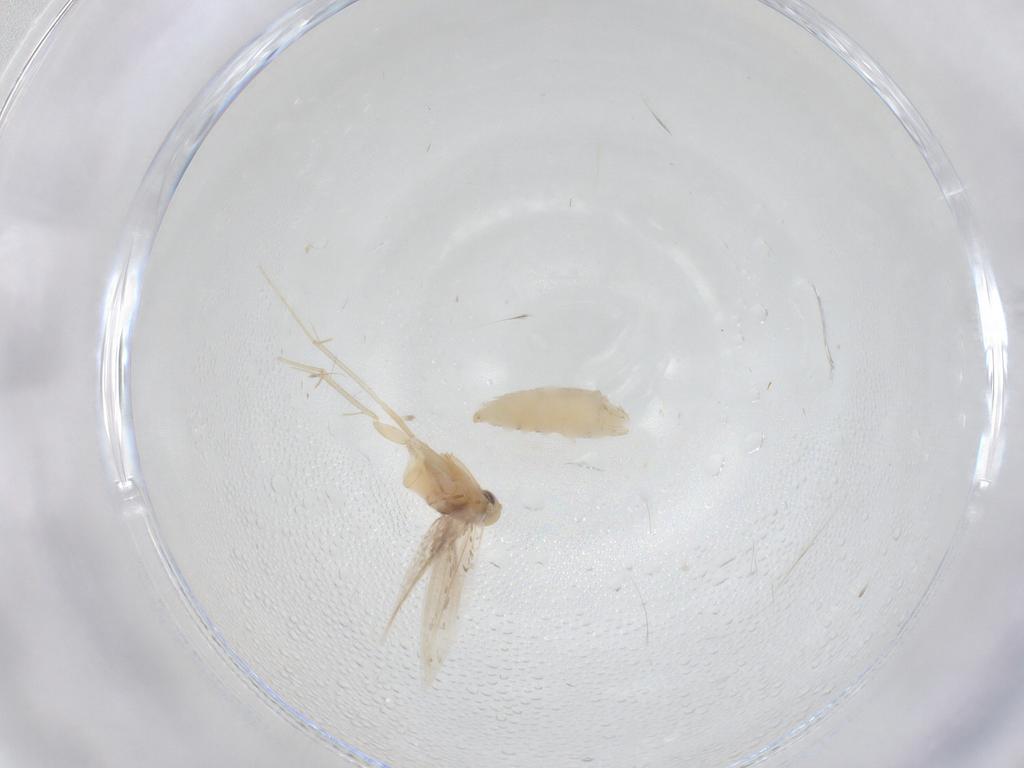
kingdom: Animalia
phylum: Arthropoda
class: Insecta
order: Lepidoptera
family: Gracillariidae
